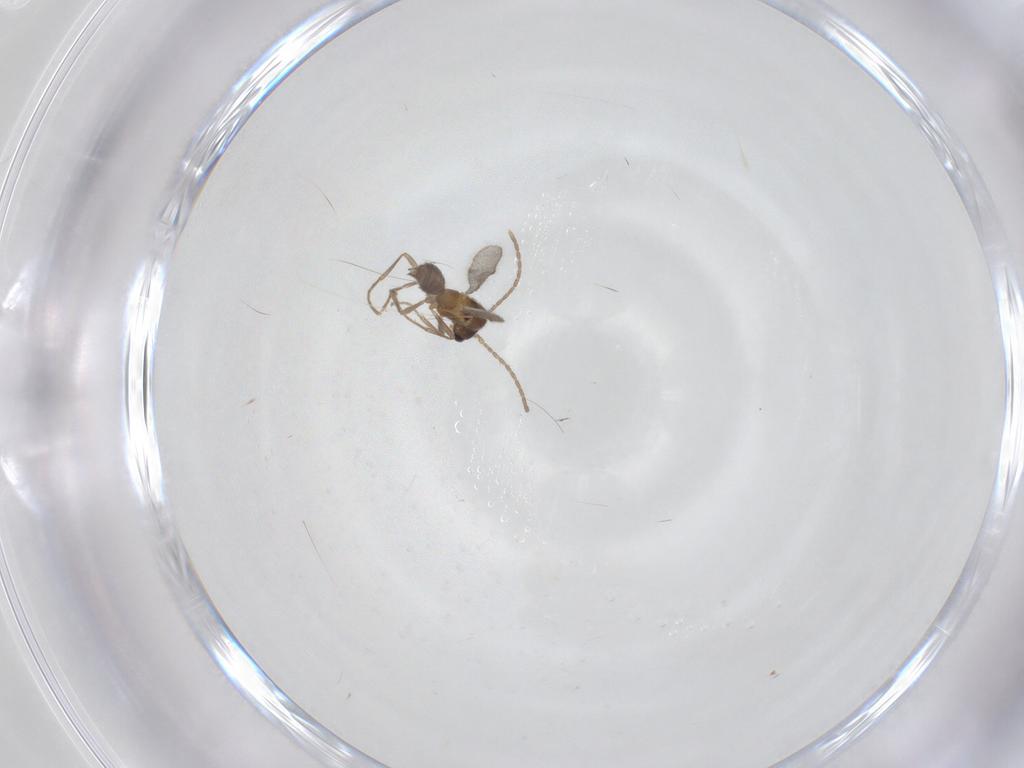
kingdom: Animalia
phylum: Arthropoda
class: Insecta
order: Hymenoptera
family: Formicidae
